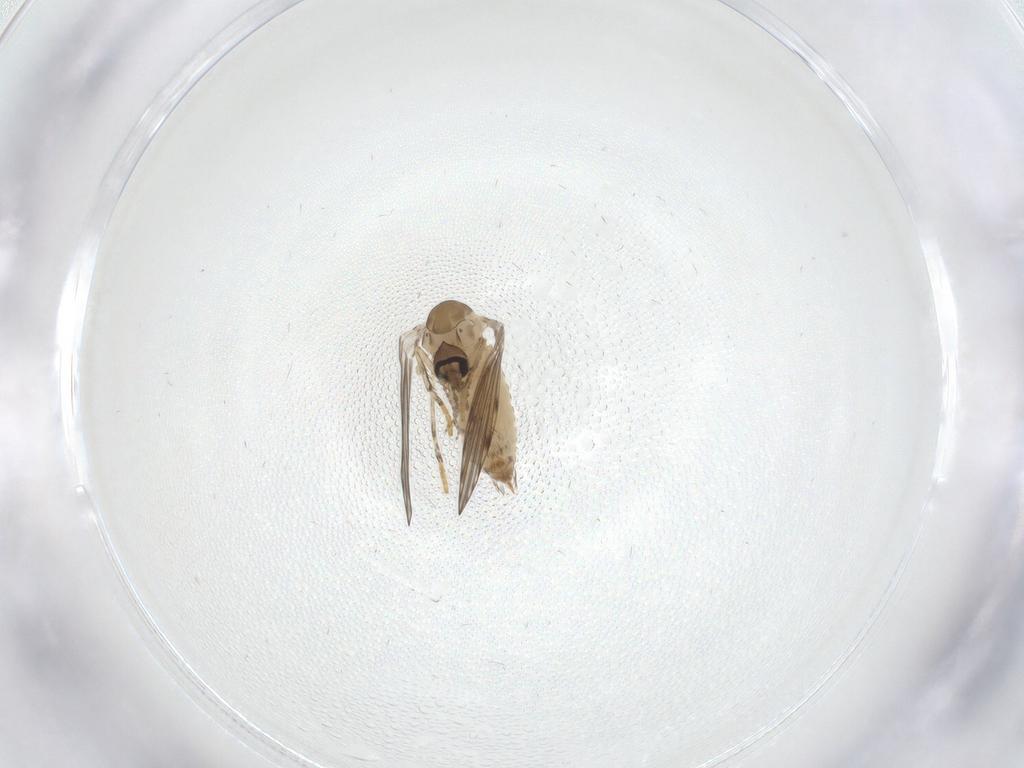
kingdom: Animalia
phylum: Arthropoda
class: Insecta
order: Diptera
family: Psychodidae
